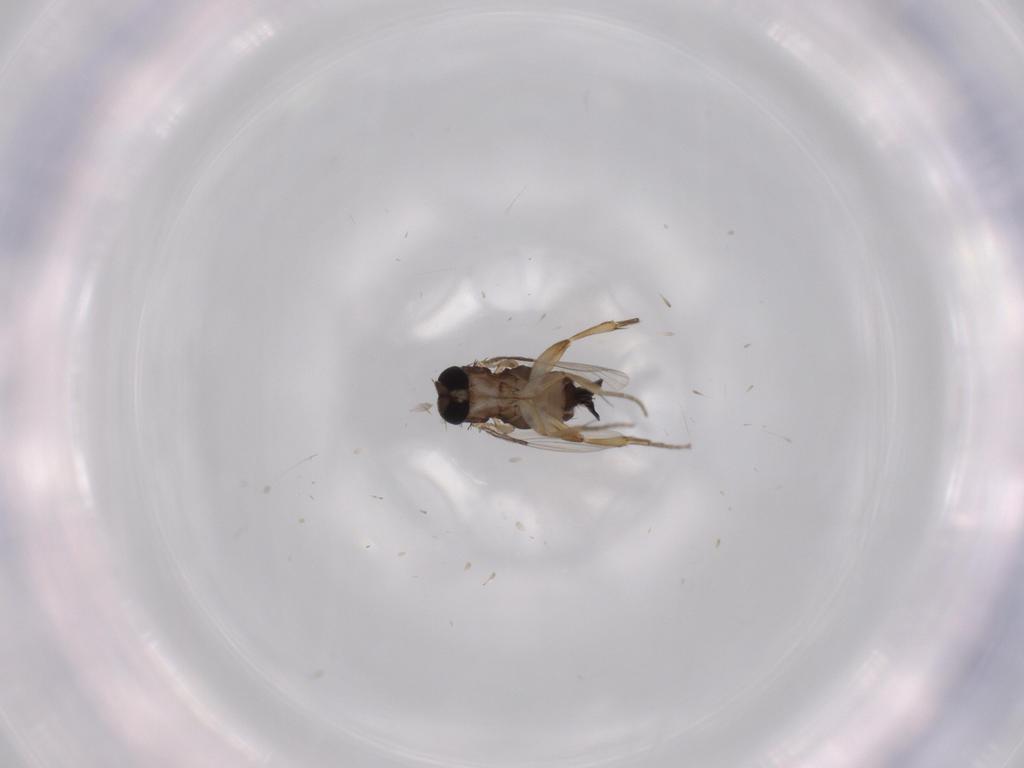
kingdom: Animalia
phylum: Arthropoda
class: Insecta
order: Diptera
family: Phoridae
